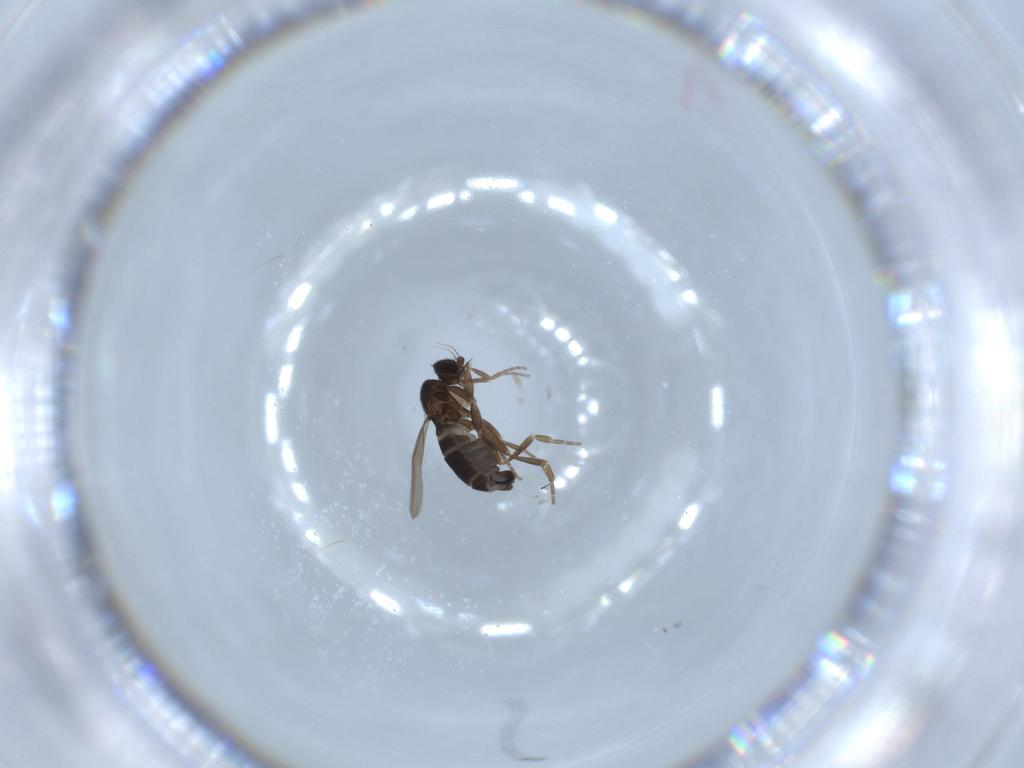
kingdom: Animalia
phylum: Arthropoda
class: Insecta
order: Diptera
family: Phoridae
